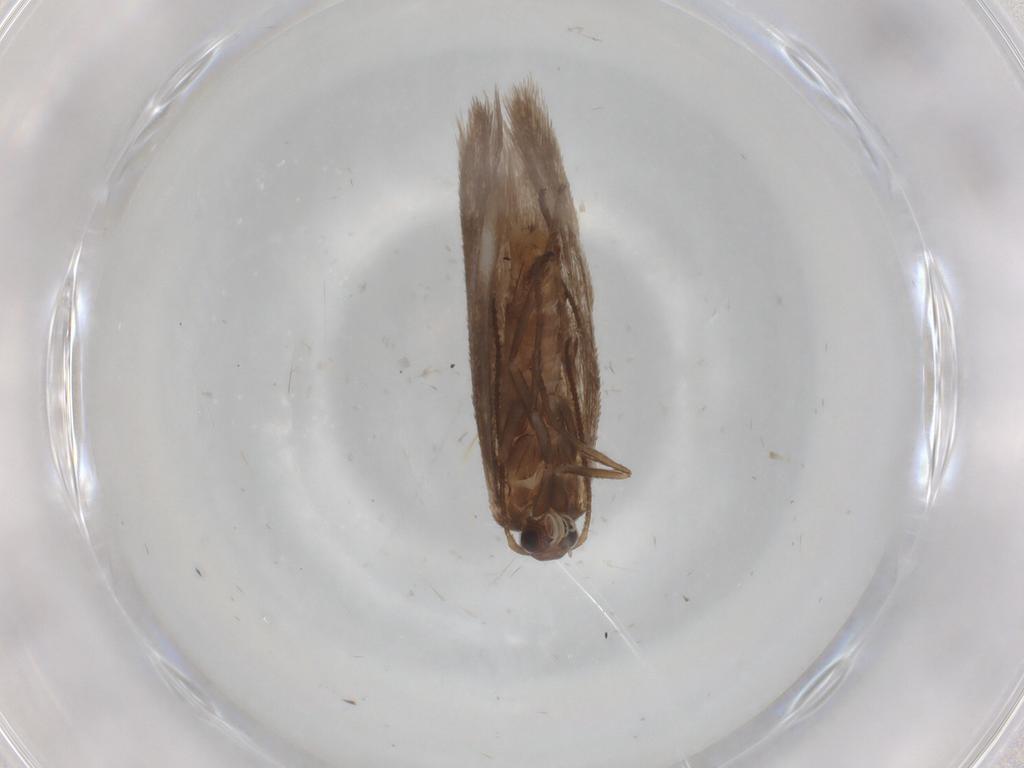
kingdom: Animalia
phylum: Arthropoda
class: Insecta
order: Lepidoptera
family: Limacodidae
